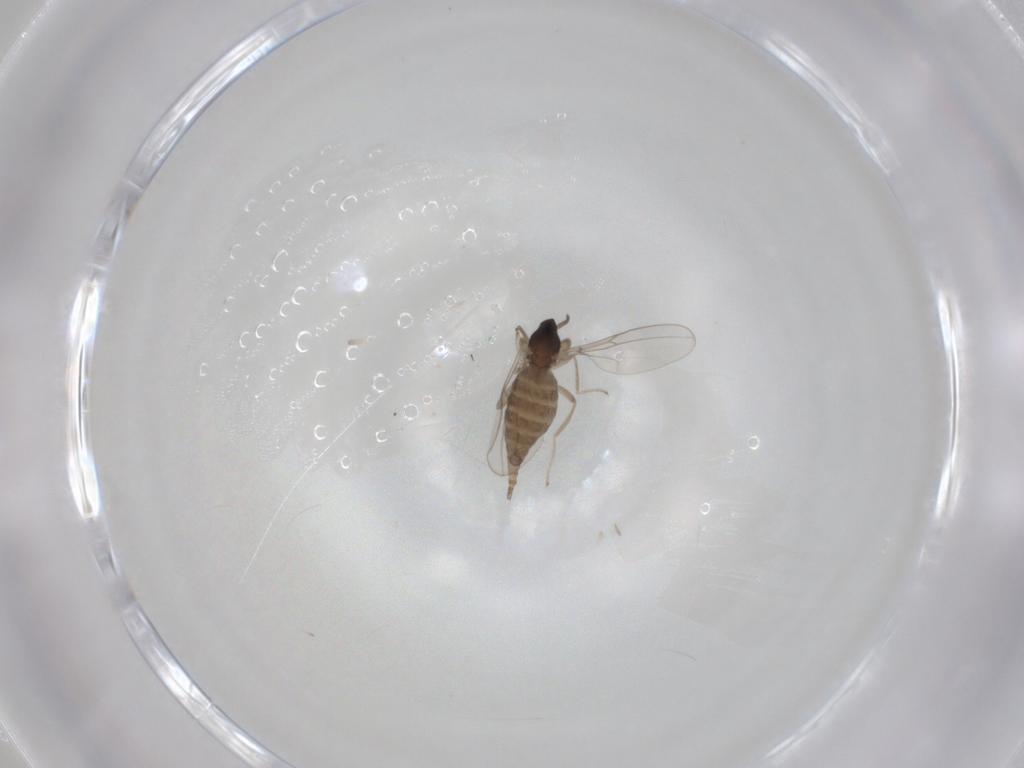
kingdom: Animalia
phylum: Arthropoda
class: Insecta
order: Diptera
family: Cecidomyiidae
